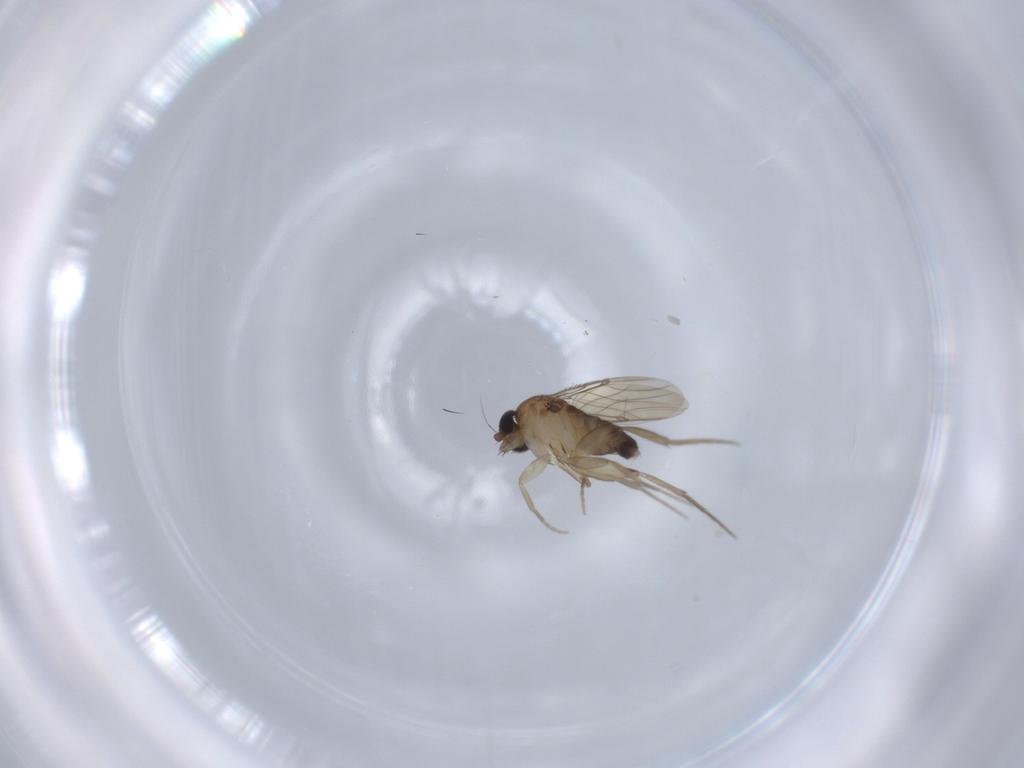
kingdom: Animalia
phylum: Arthropoda
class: Insecta
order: Diptera
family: Phoridae
